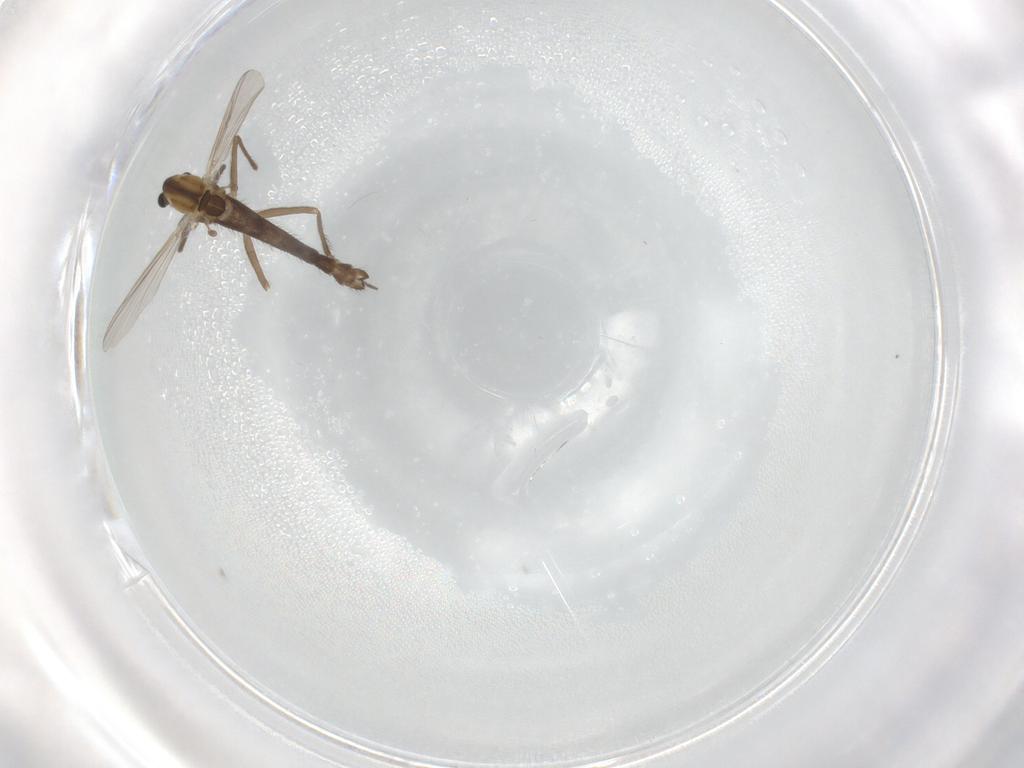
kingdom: Animalia
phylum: Arthropoda
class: Insecta
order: Diptera
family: Chironomidae
